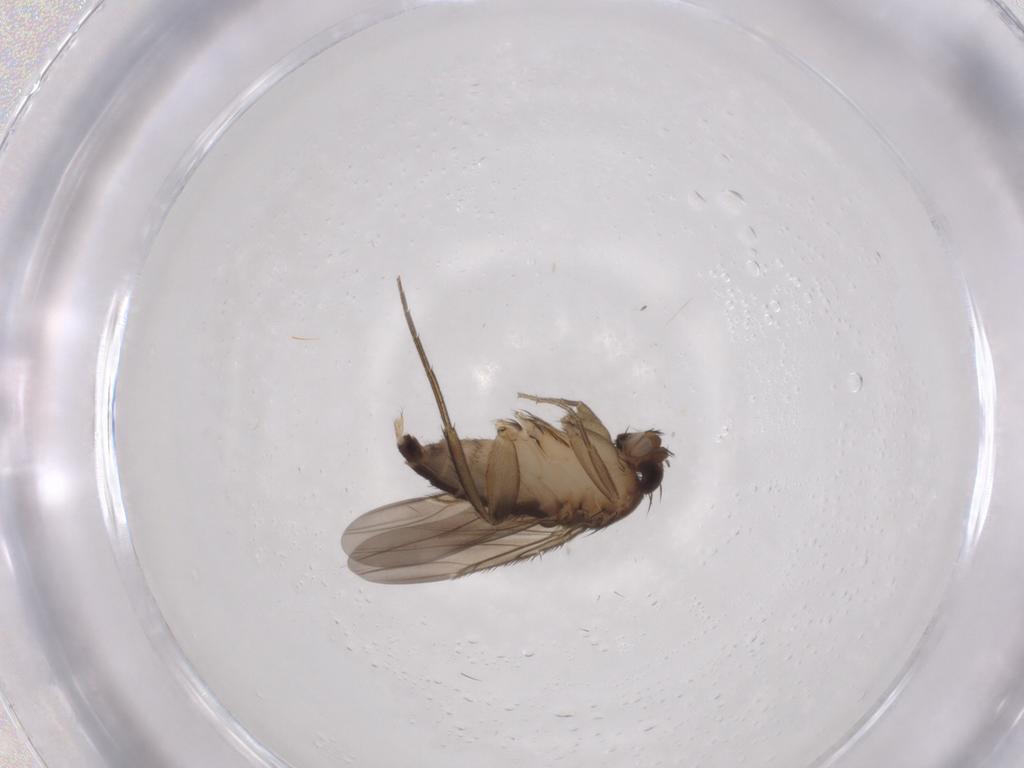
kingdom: Animalia
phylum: Arthropoda
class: Insecta
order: Diptera
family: Phoridae
